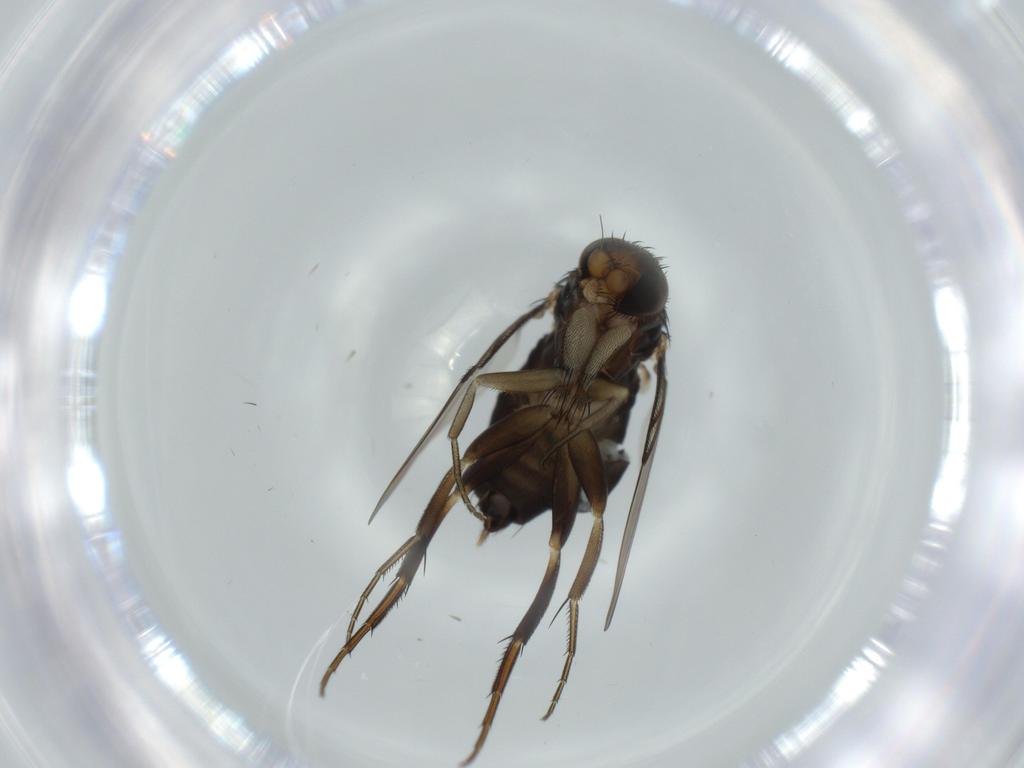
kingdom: Animalia
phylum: Arthropoda
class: Insecta
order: Diptera
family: Phoridae
